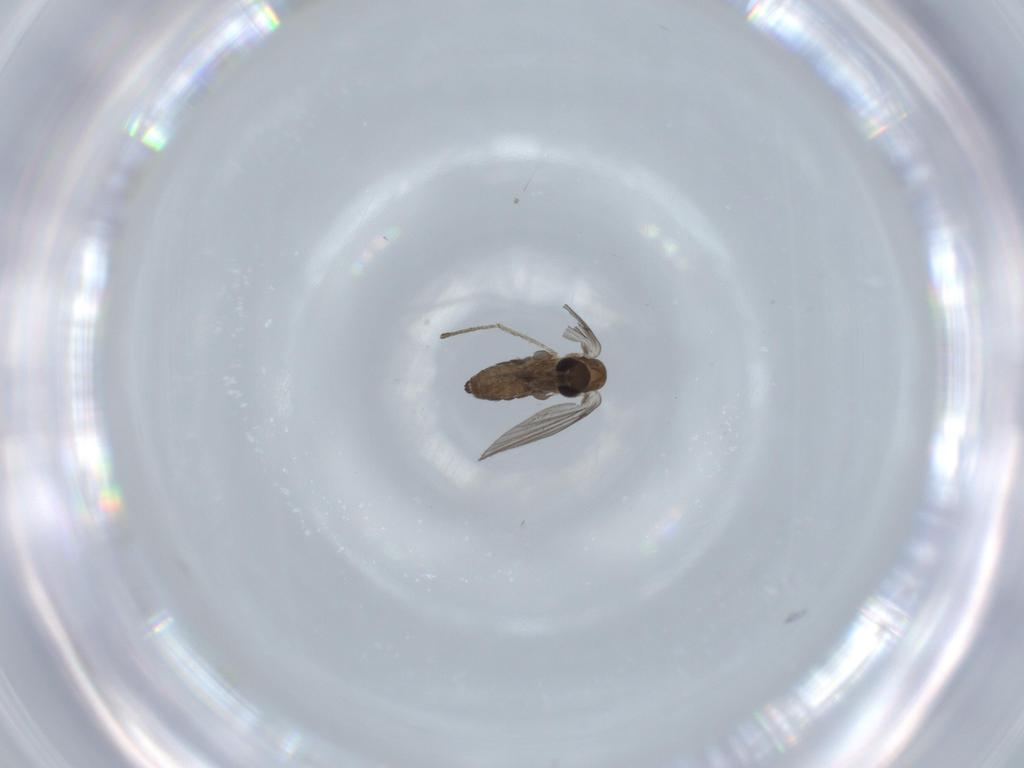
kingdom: Animalia
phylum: Arthropoda
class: Insecta
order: Diptera
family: Psychodidae
